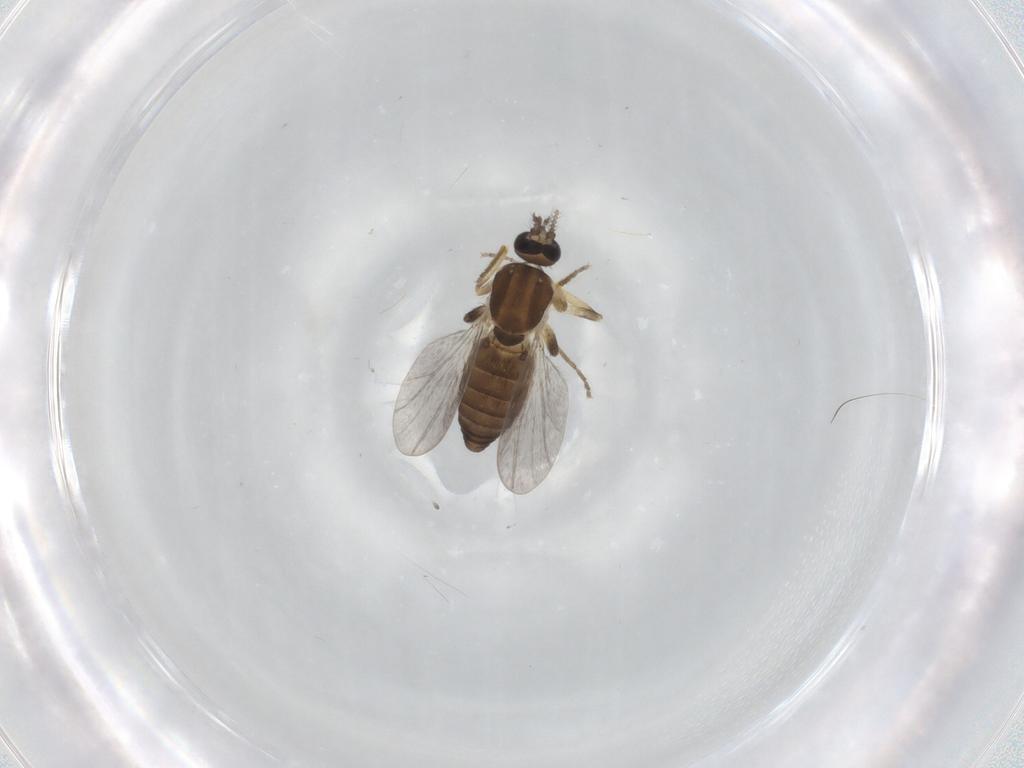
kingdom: Animalia
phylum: Arthropoda
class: Insecta
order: Diptera
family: Ceratopogonidae
